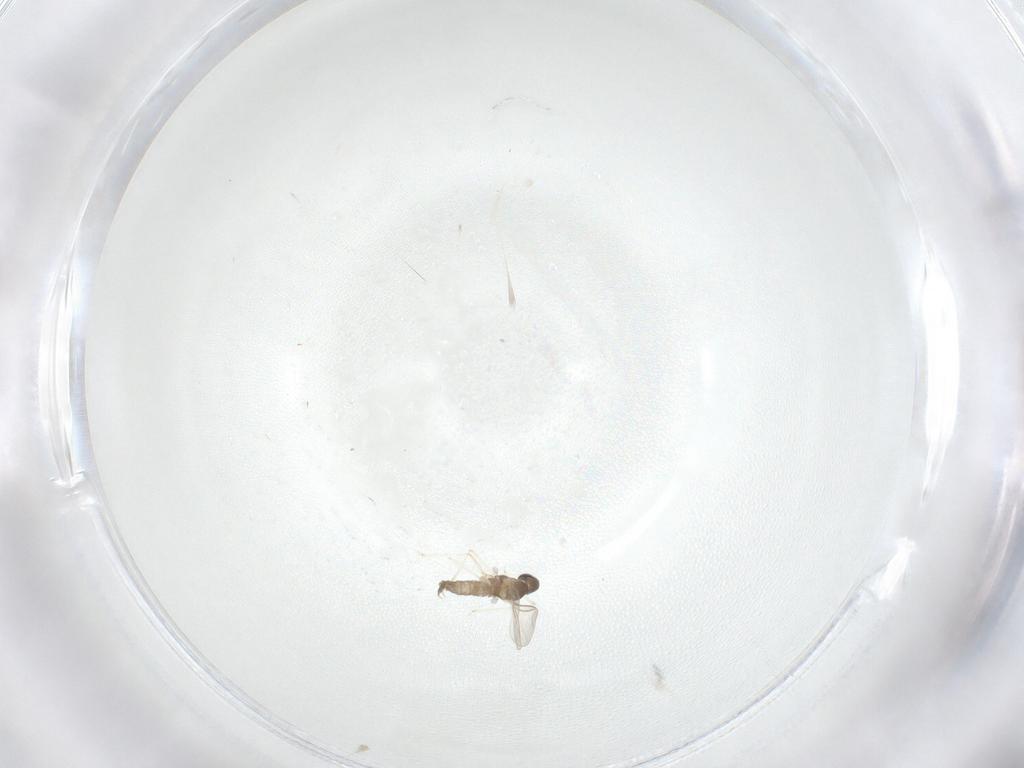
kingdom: Animalia
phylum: Arthropoda
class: Insecta
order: Diptera
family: Cecidomyiidae
